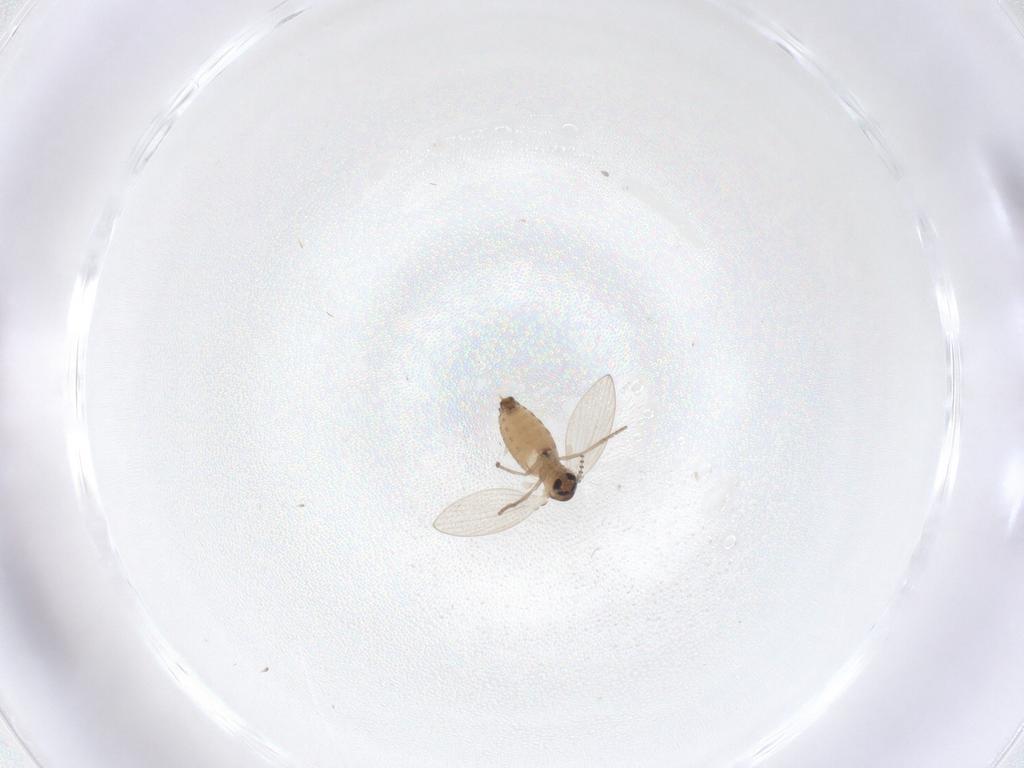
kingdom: Animalia
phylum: Arthropoda
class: Insecta
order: Diptera
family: Psychodidae
